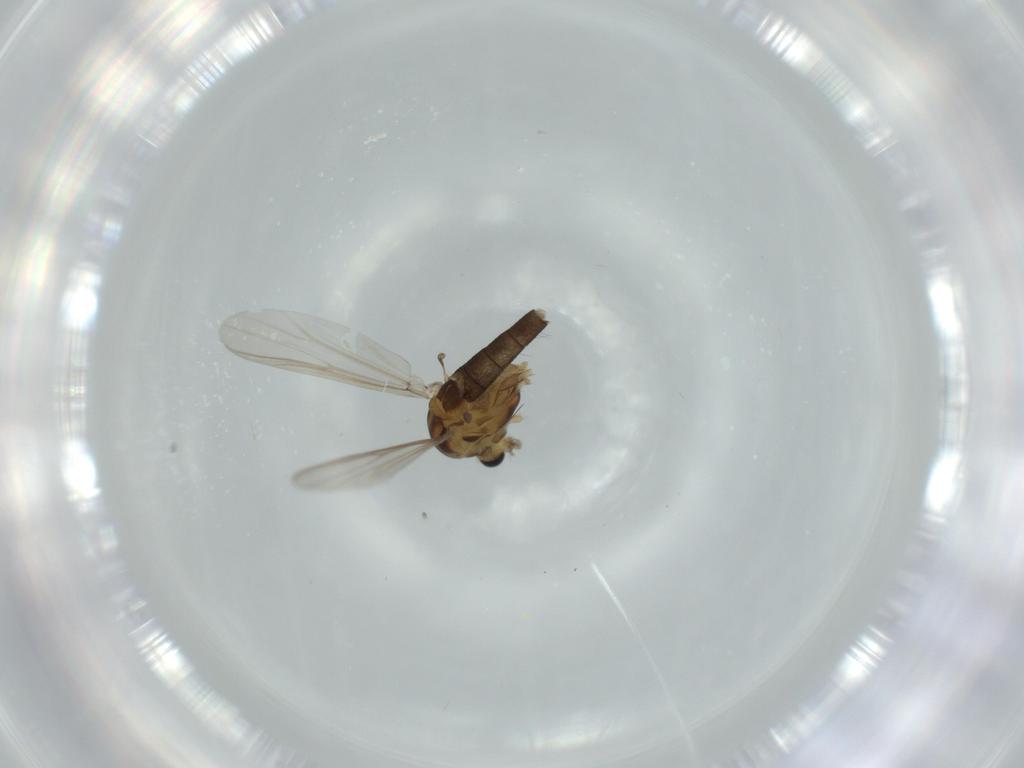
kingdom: Animalia
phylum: Arthropoda
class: Insecta
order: Diptera
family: Chironomidae
